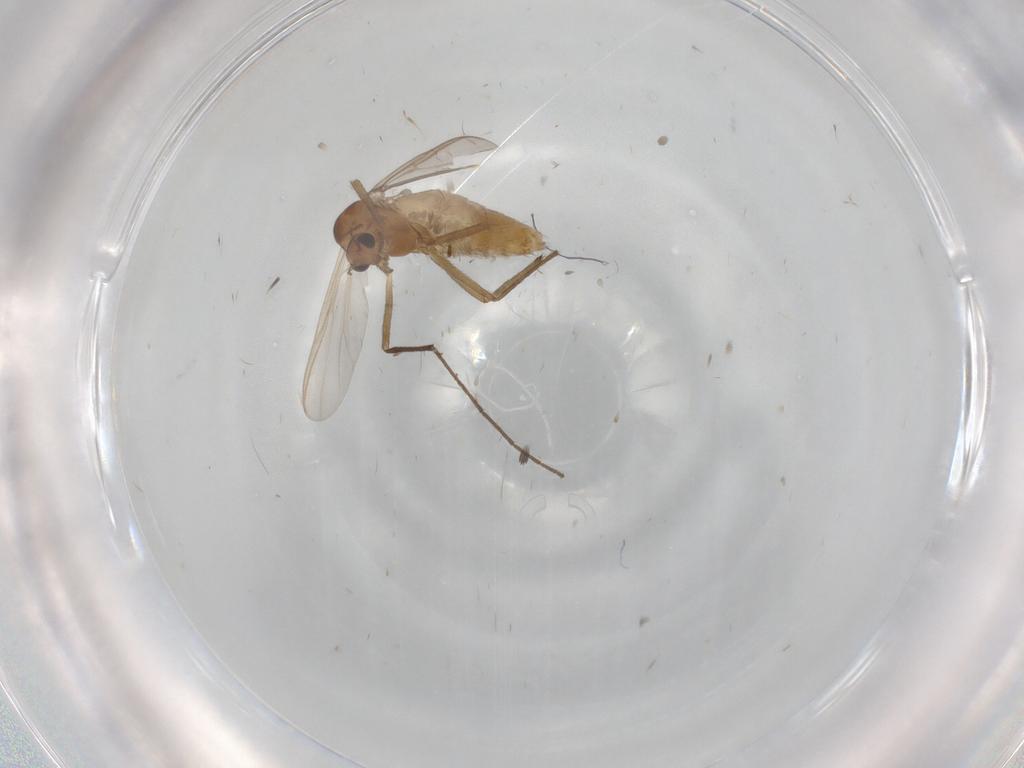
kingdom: Animalia
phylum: Arthropoda
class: Insecta
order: Diptera
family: Chironomidae
